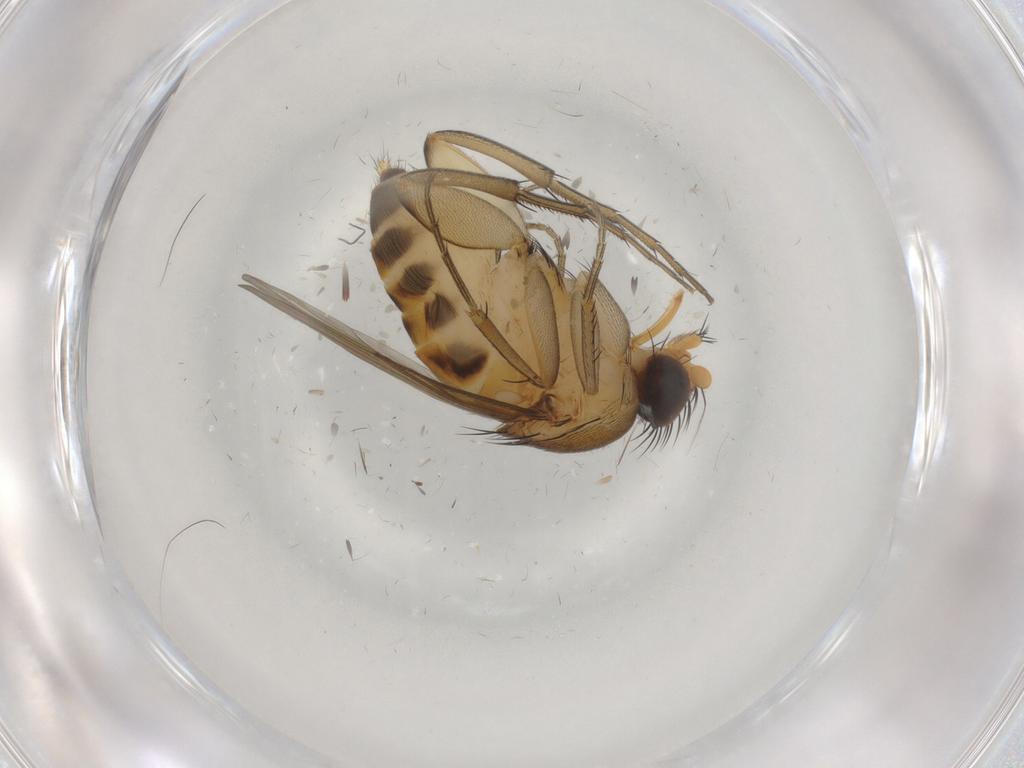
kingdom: Animalia
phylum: Arthropoda
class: Insecta
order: Diptera
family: Phoridae
